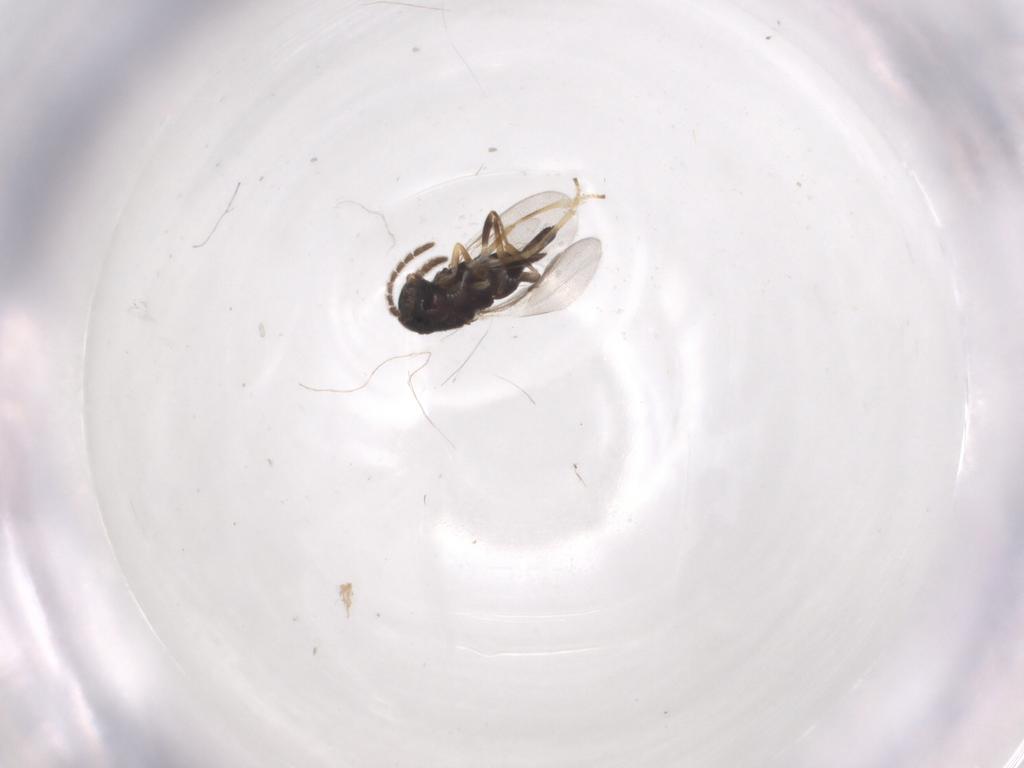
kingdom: Animalia
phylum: Arthropoda
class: Insecta
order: Hymenoptera
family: Encyrtidae
